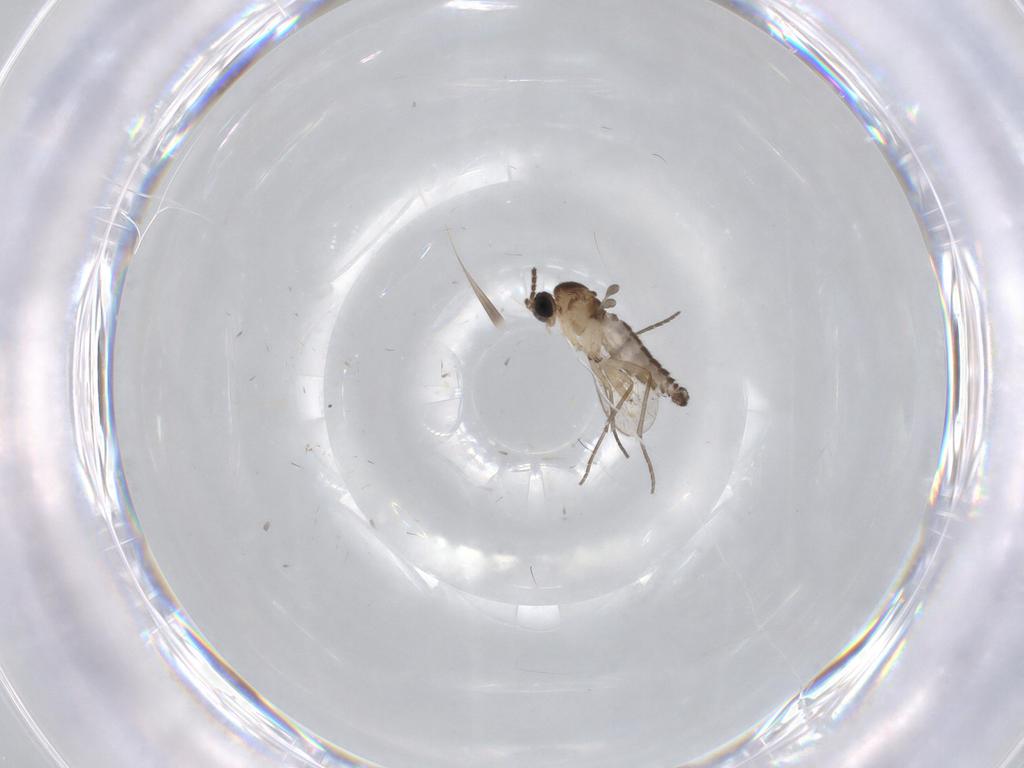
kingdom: Animalia
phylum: Arthropoda
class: Insecta
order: Diptera
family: Sciaridae
